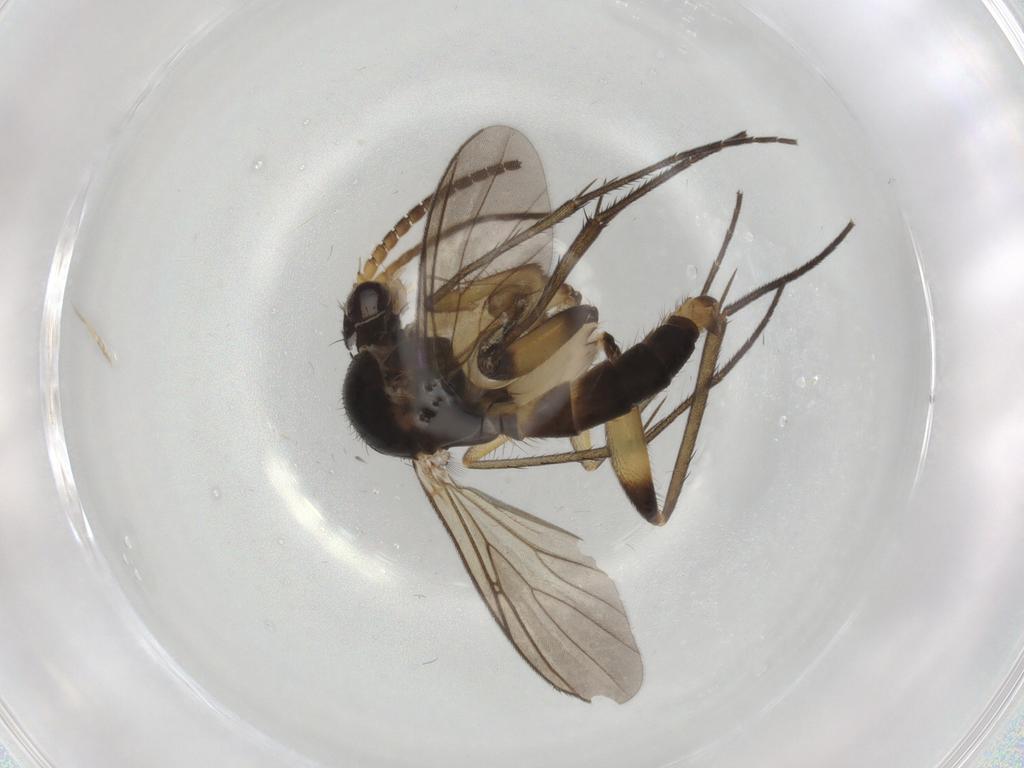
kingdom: Animalia
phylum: Arthropoda
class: Insecta
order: Diptera
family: Mycetophilidae
